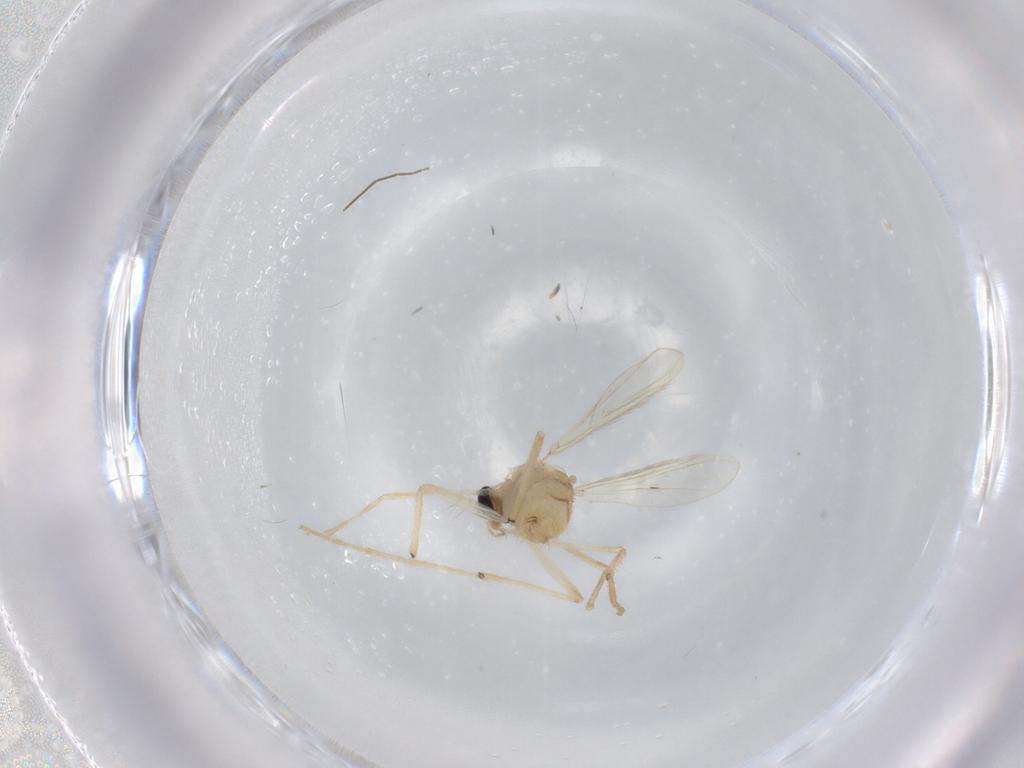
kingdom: Animalia
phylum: Arthropoda
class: Insecta
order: Diptera
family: Chironomidae
